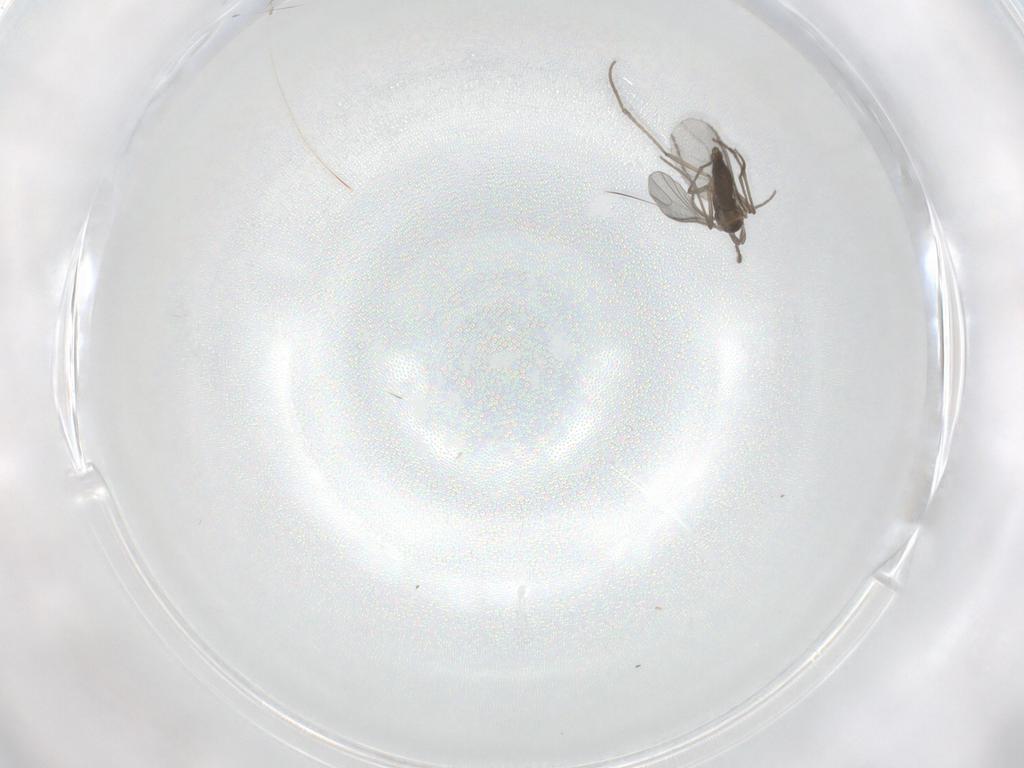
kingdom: Animalia
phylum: Arthropoda
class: Insecta
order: Diptera
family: Sciaridae
